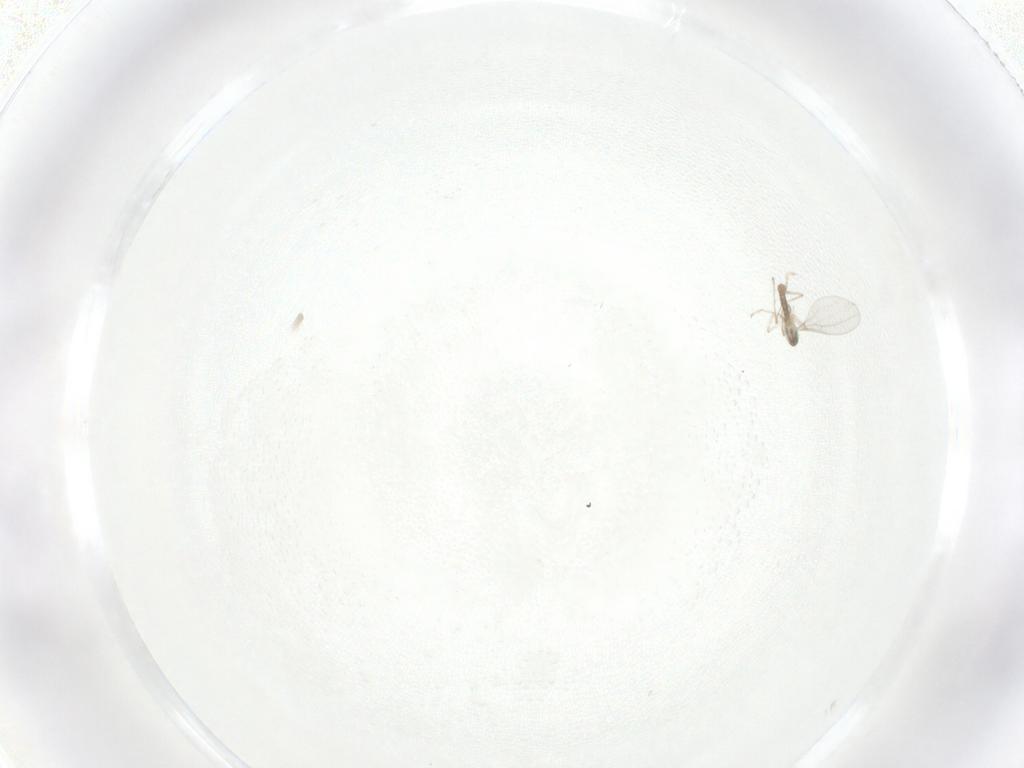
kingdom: Animalia
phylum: Arthropoda
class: Insecta
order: Diptera
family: Cecidomyiidae
